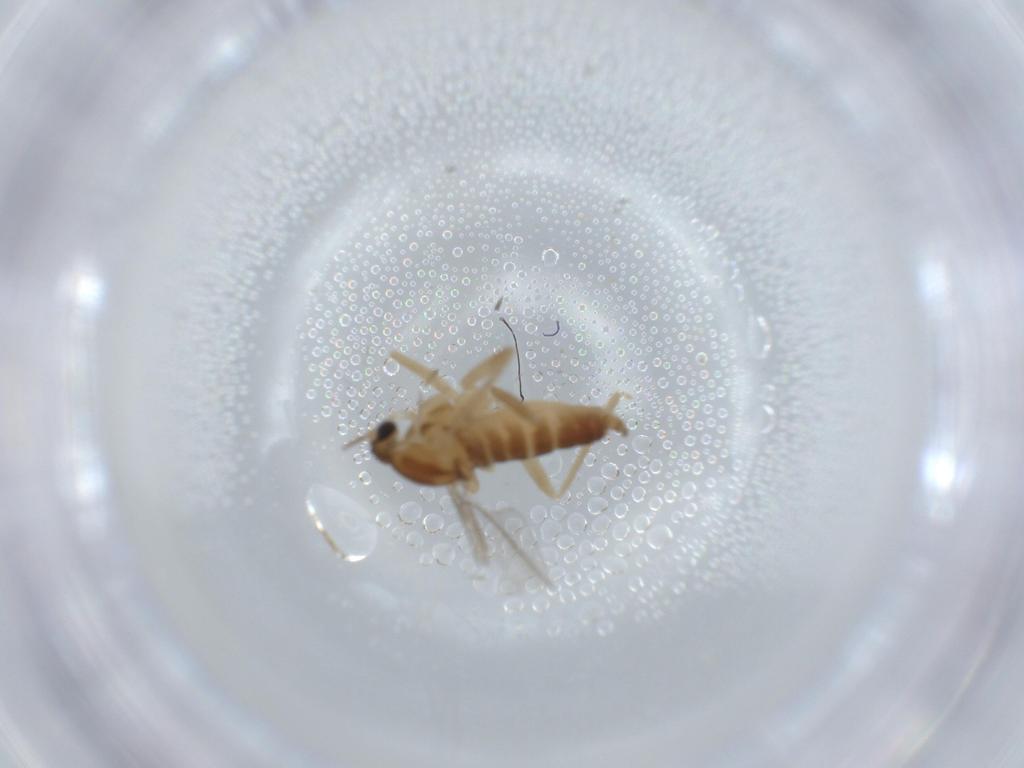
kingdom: Animalia
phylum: Arthropoda
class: Insecta
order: Diptera
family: Cecidomyiidae
